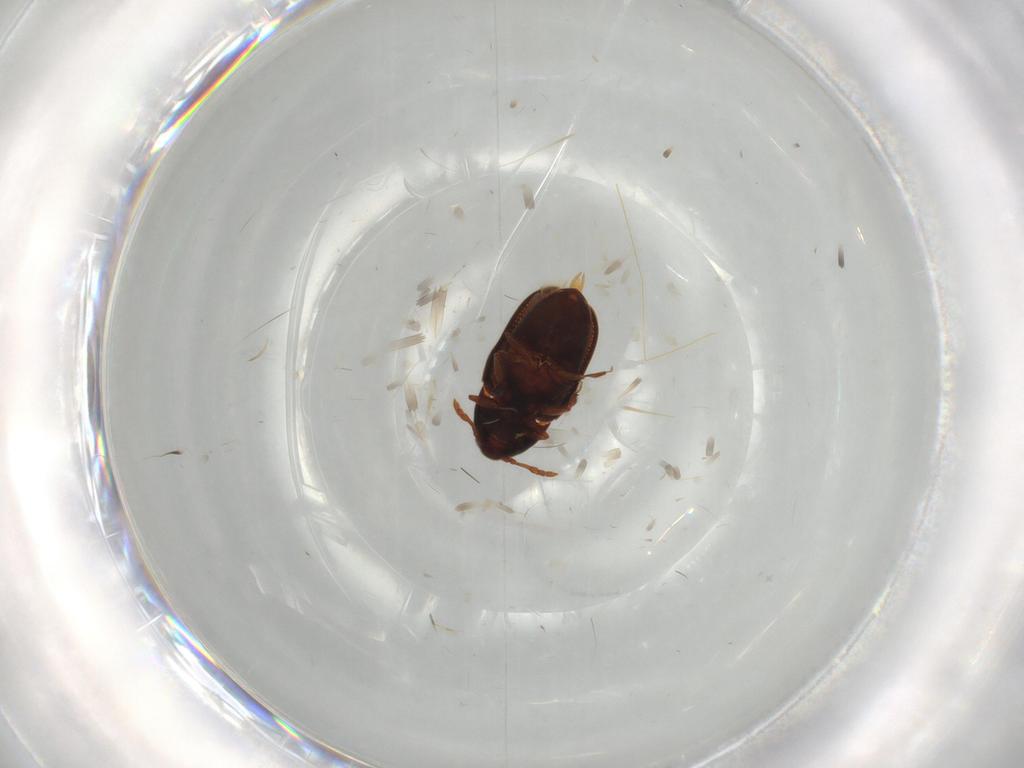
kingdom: Animalia
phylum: Arthropoda
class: Insecta
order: Coleoptera
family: Throscidae
